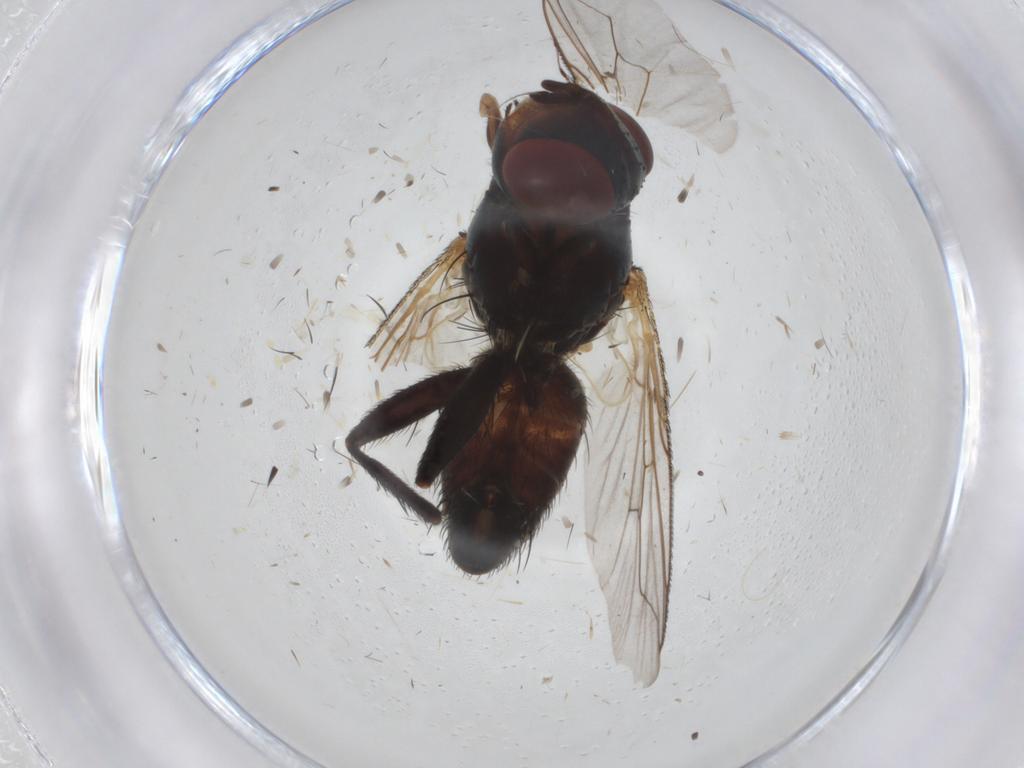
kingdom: Animalia
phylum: Arthropoda
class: Insecta
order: Diptera
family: Sarcophagidae
